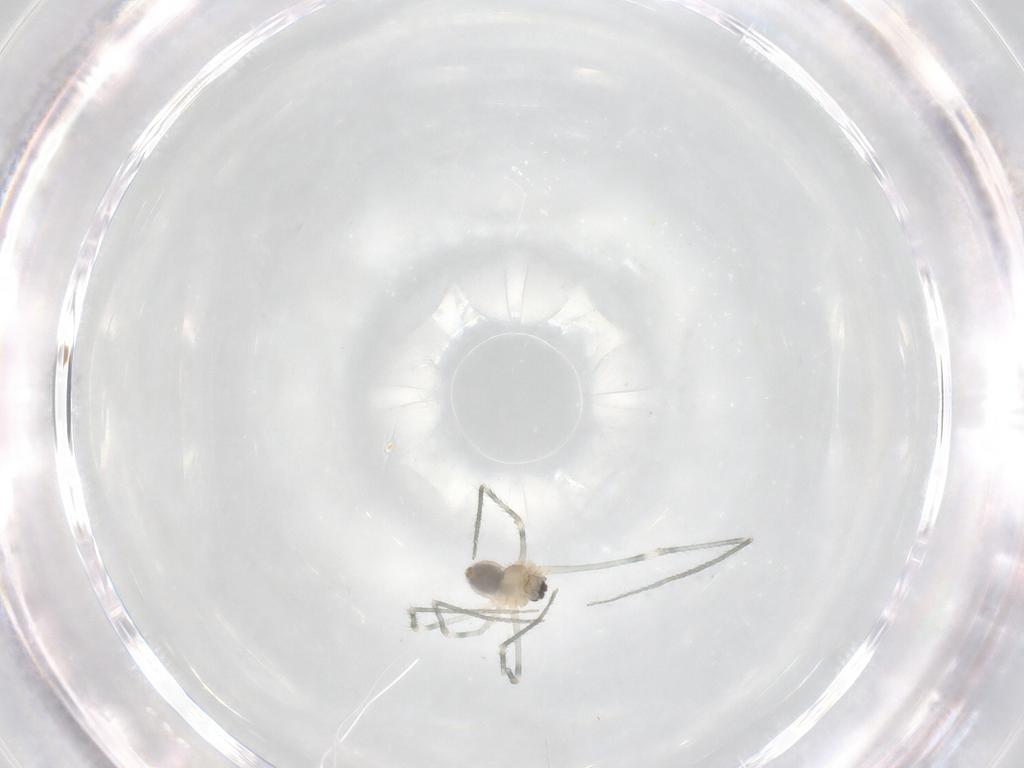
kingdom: Animalia
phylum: Arthropoda
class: Arachnida
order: Araneae
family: Pholcidae
